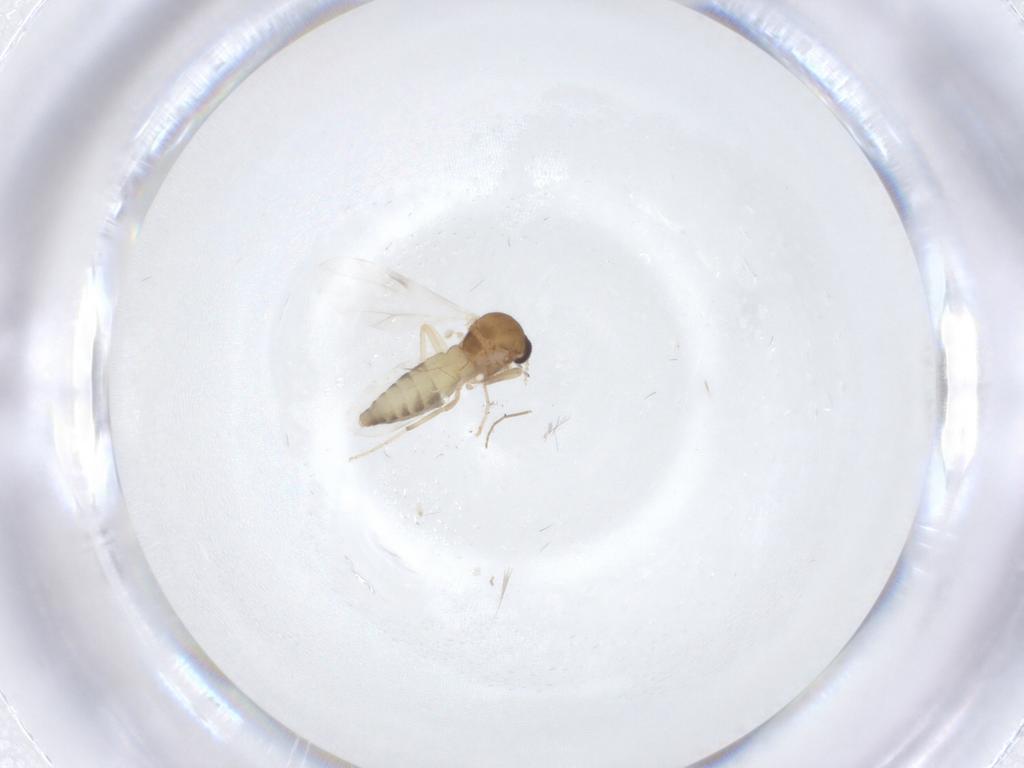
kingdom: Animalia
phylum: Arthropoda
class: Insecta
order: Diptera
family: Ceratopogonidae
